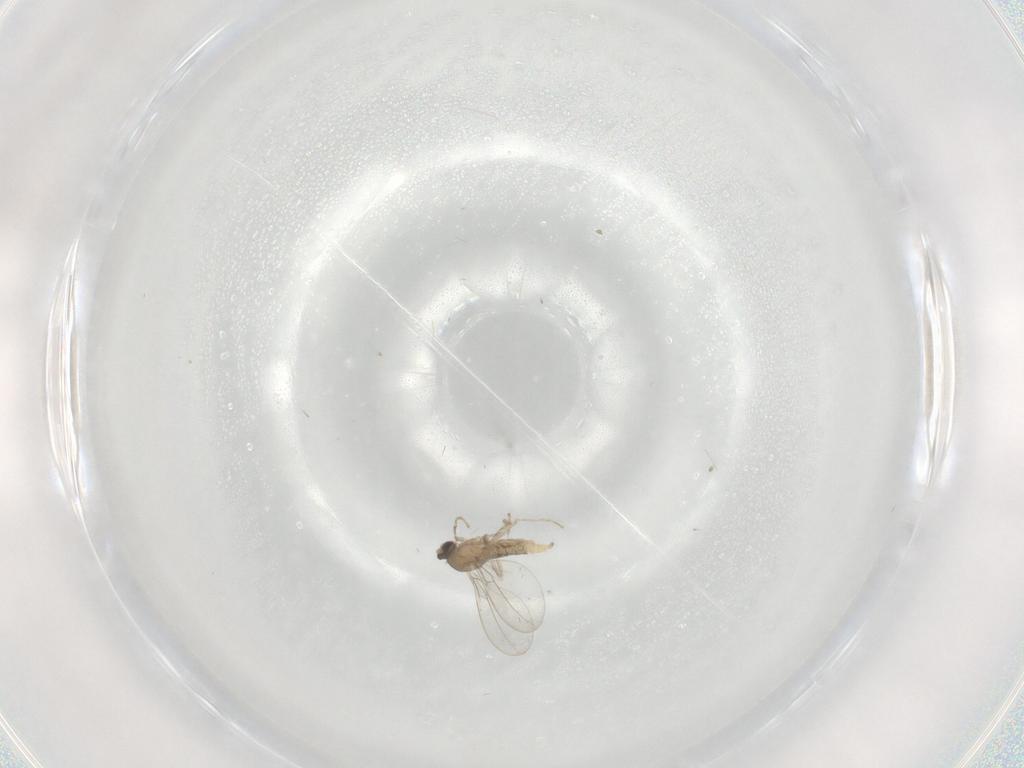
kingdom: Animalia
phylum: Arthropoda
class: Insecta
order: Diptera
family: Cecidomyiidae
